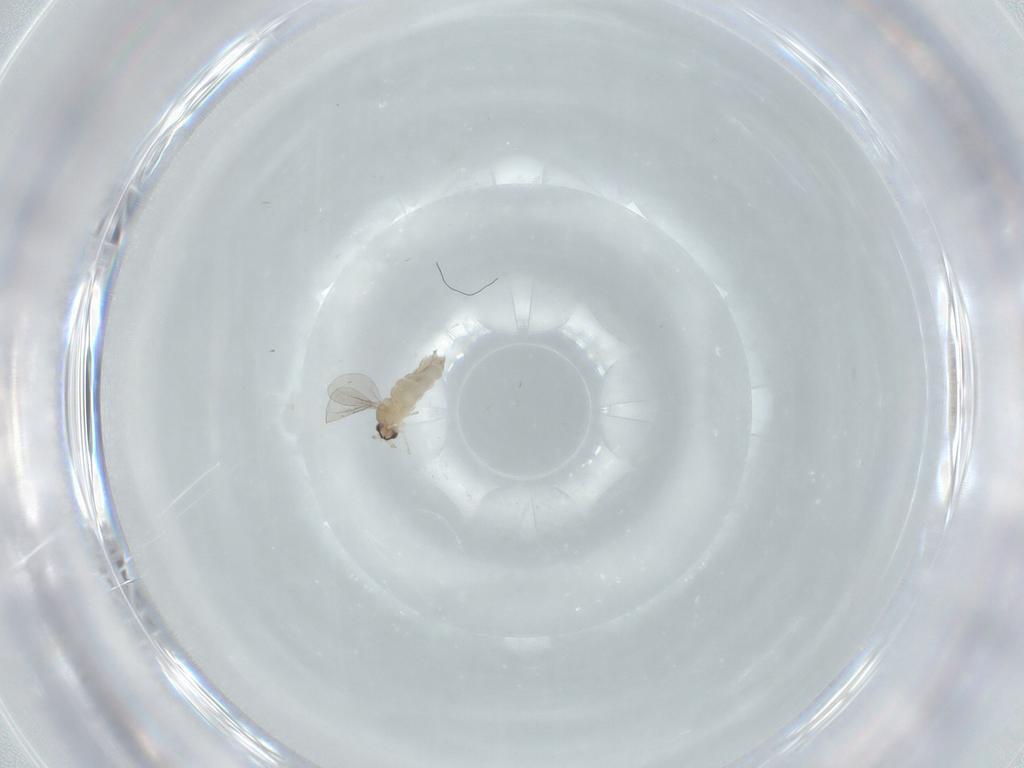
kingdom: Animalia
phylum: Arthropoda
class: Insecta
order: Diptera
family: Cecidomyiidae
